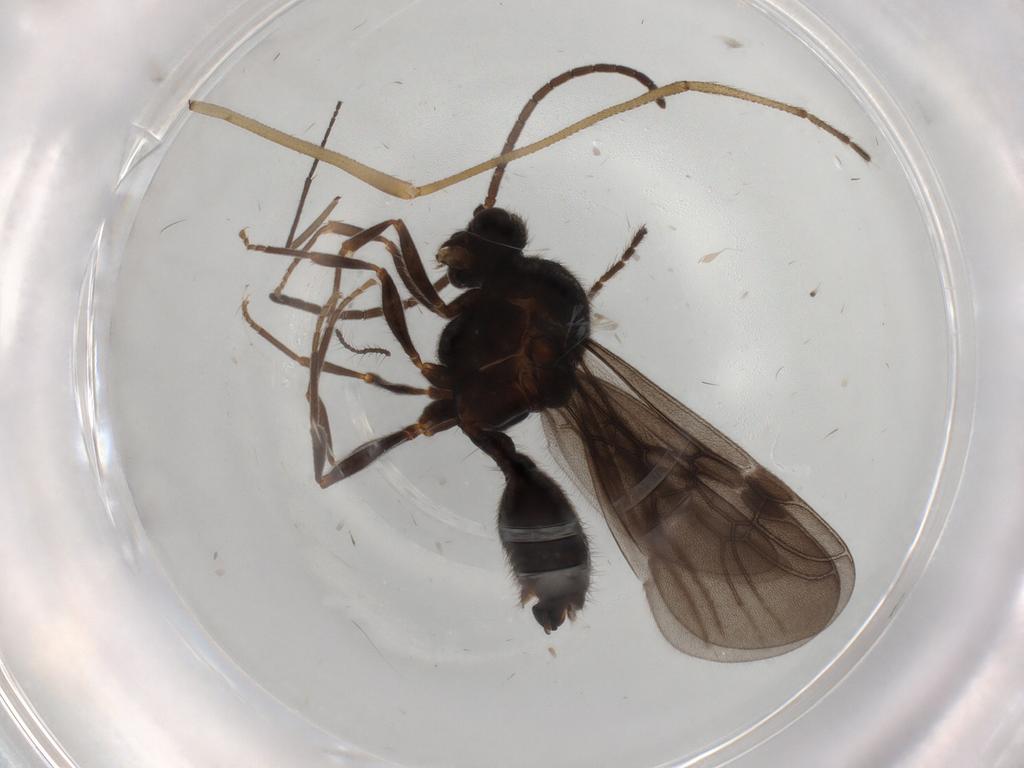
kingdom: Animalia
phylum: Arthropoda
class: Insecta
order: Hymenoptera
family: Formicidae
